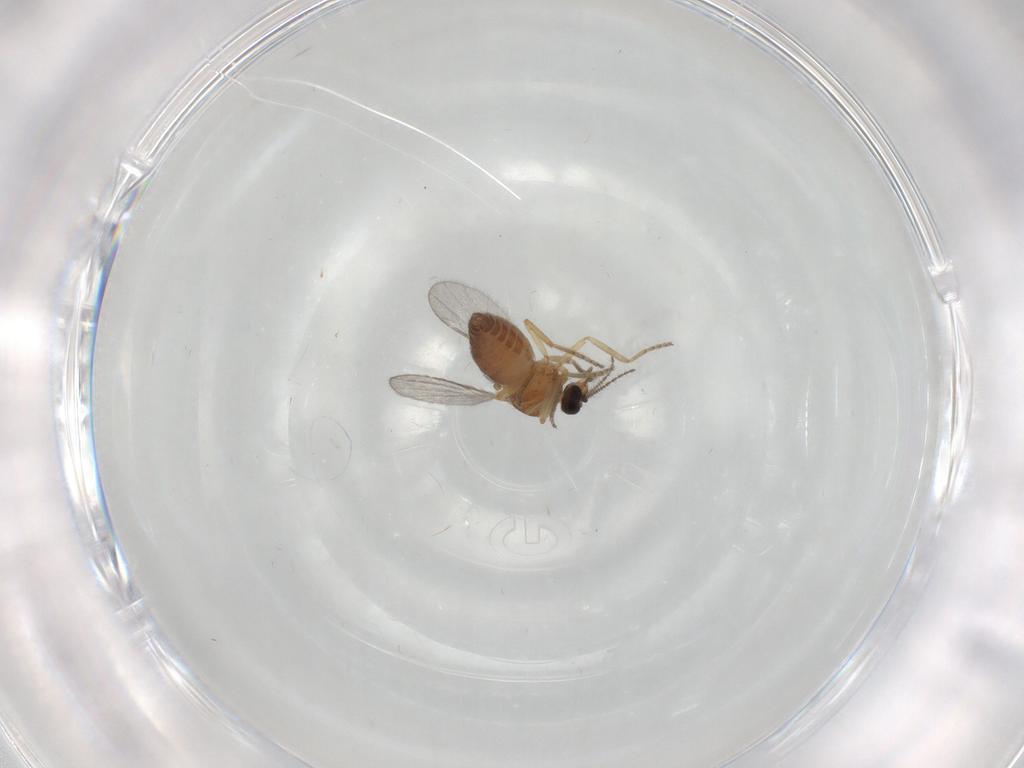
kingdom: Animalia
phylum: Arthropoda
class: Insecta
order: Diptera
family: Ceratopogonidae
